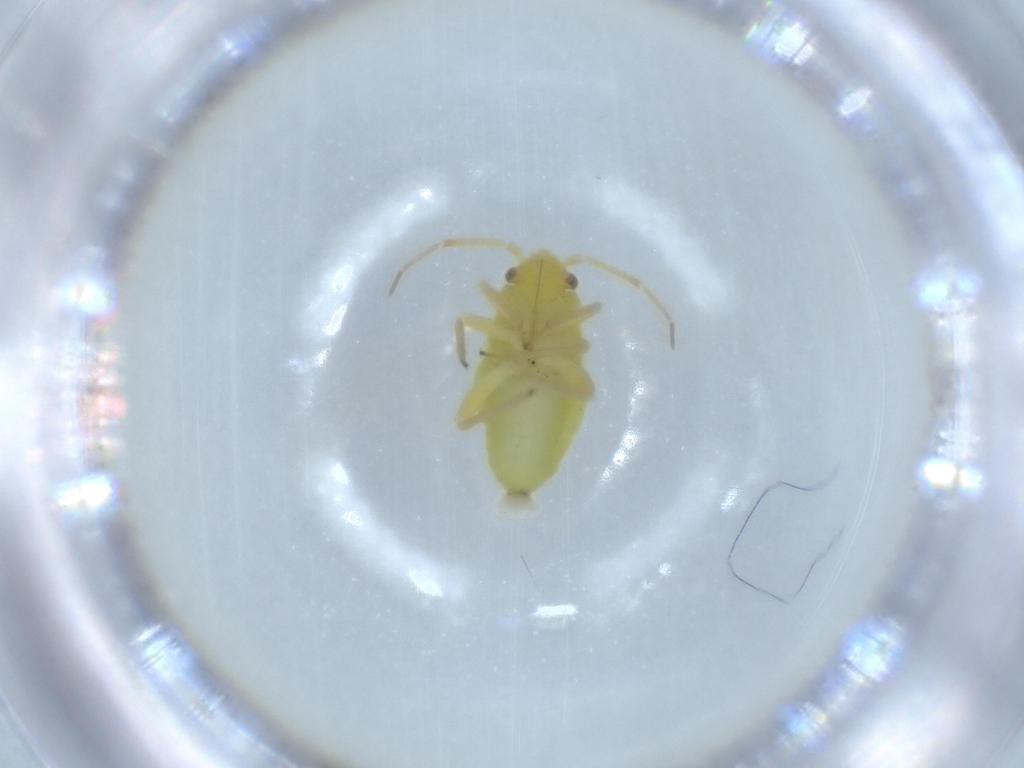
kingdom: Animalia
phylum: Arthropoda
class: Insecta
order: Hemiptera
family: Miridae
